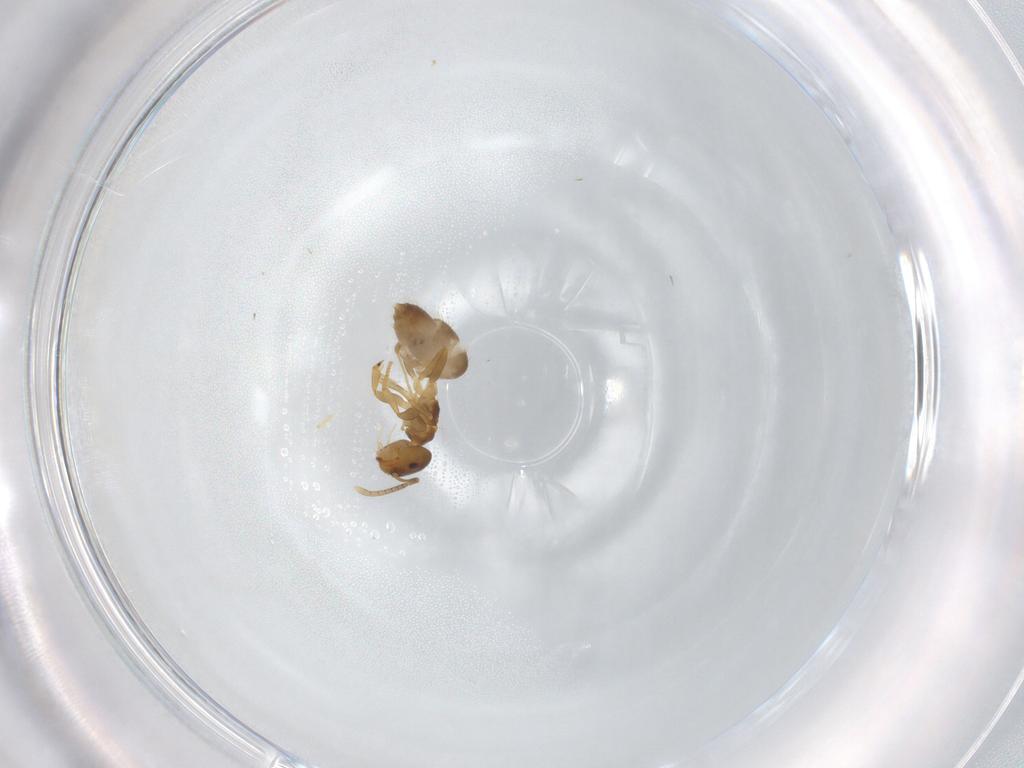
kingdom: Animalia
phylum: Arthropoda
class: Insecta
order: Hymenoptera
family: Formicidae
